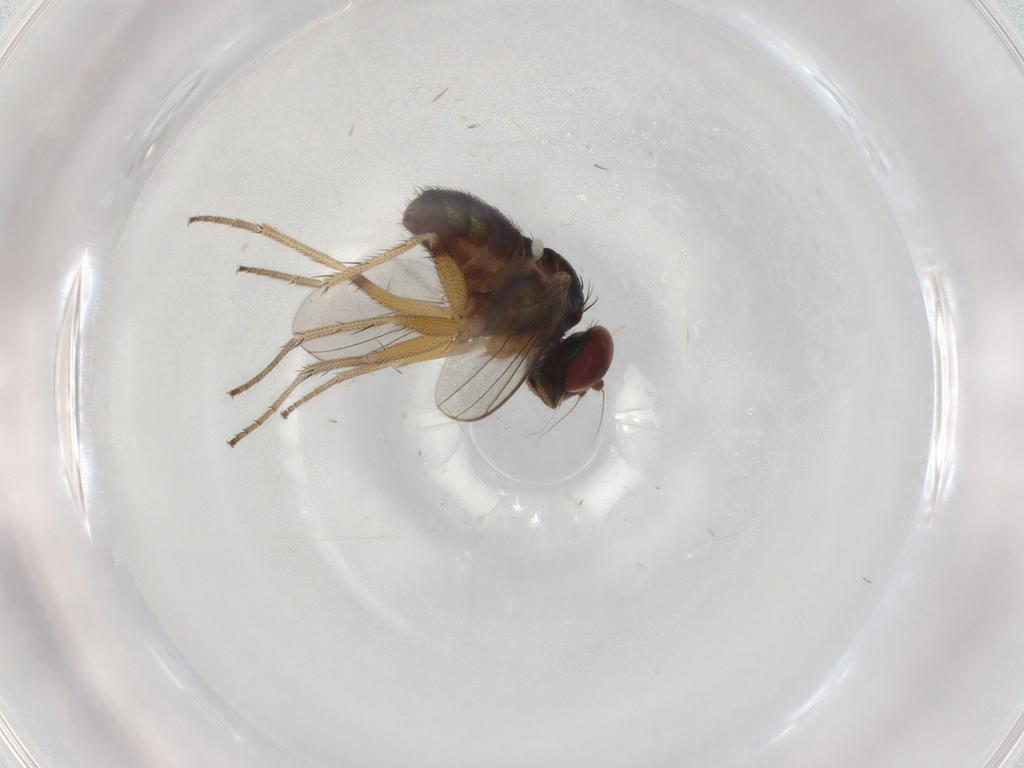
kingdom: Animalia
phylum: Arthropoda
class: Insecta
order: Diptera
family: Dolichopodidae
